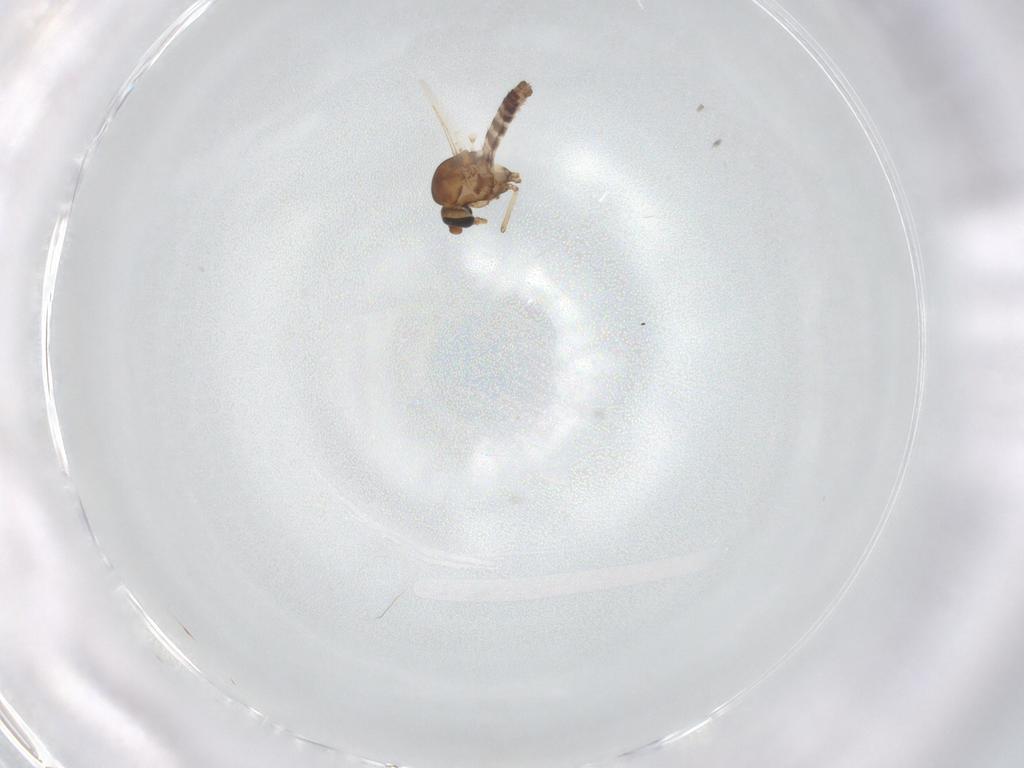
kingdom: Animalia
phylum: Arthropoda
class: Insecta
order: Diptera
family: Ceratopogonidae
